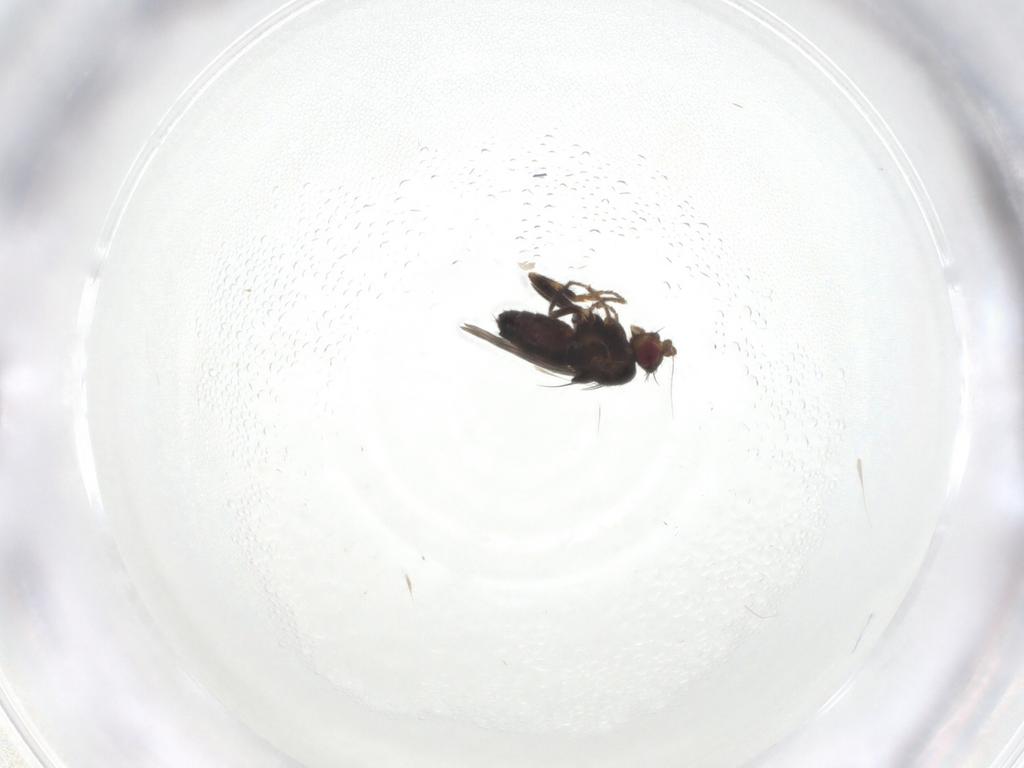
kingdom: Animalia
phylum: Arthropoda
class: Insecta
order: Diptera
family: Sphaeroceridae
